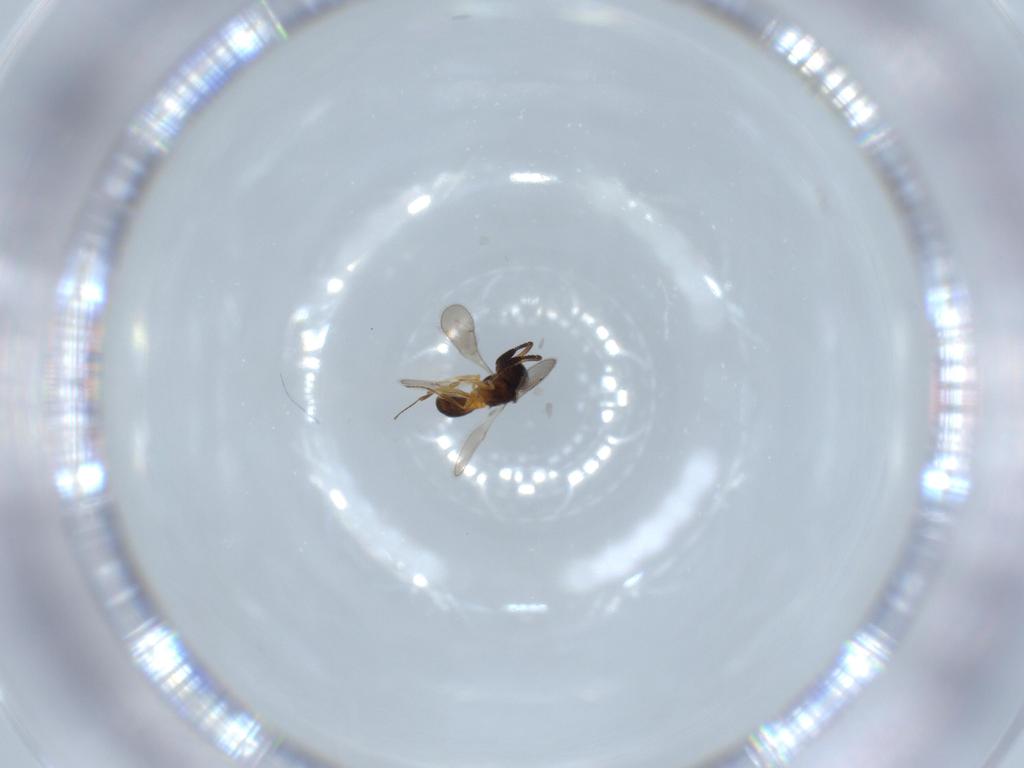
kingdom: Animalia
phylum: Arthropoda
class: Insecta
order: Hymenoptera
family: Scelionidae
